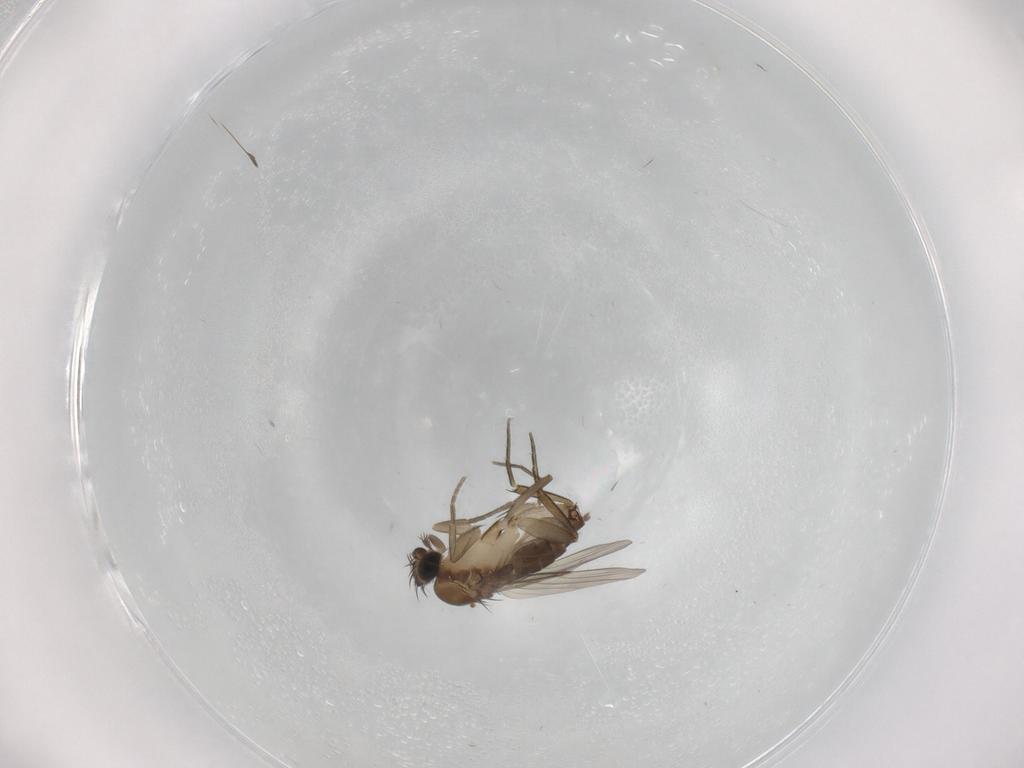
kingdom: Animalia
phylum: Arthropoda
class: Insecta
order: Diptera
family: Phoridae
